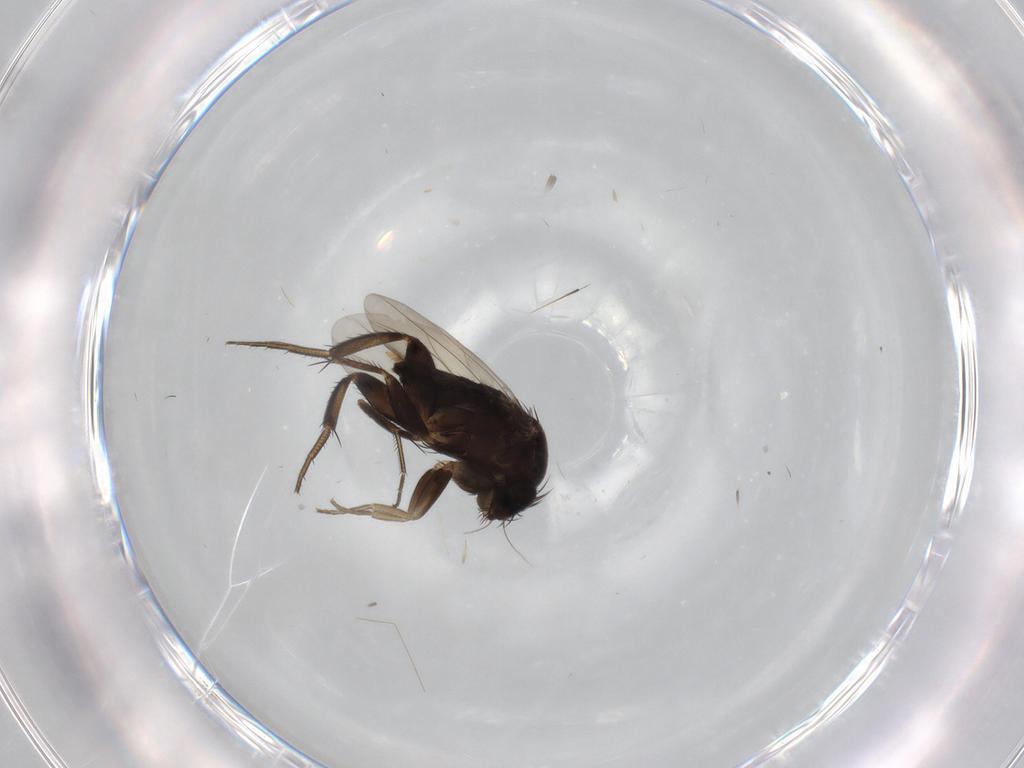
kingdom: Animalia
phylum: Arthropoda
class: Insecta
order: Diptera
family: Phoridae
